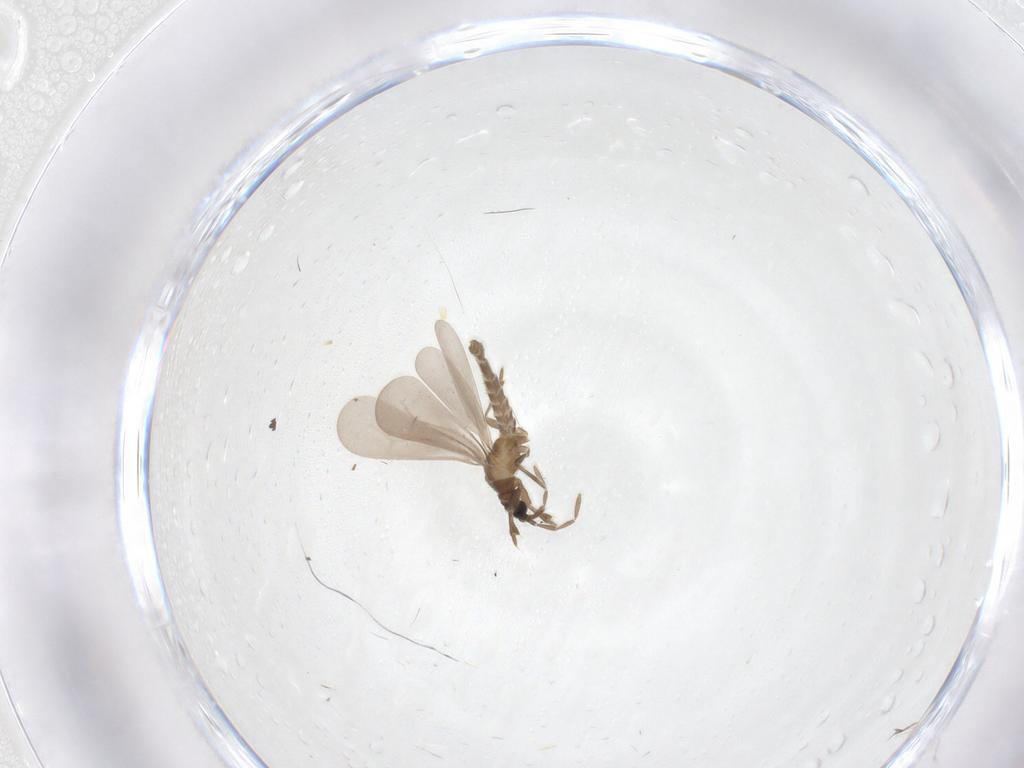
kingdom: Animalia
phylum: Arthropoda
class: Insecta
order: Hemiptera
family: Enicocephalidae
